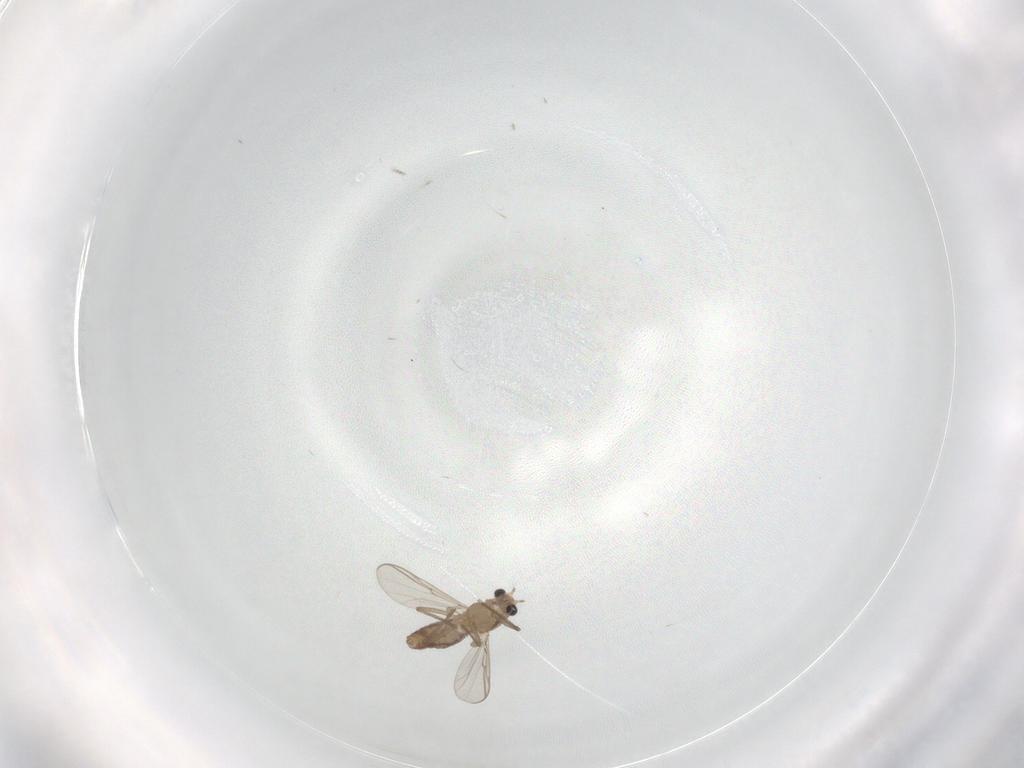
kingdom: Animalia
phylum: Arthropoda
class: Insecta
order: Diptera
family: Chironomidae
